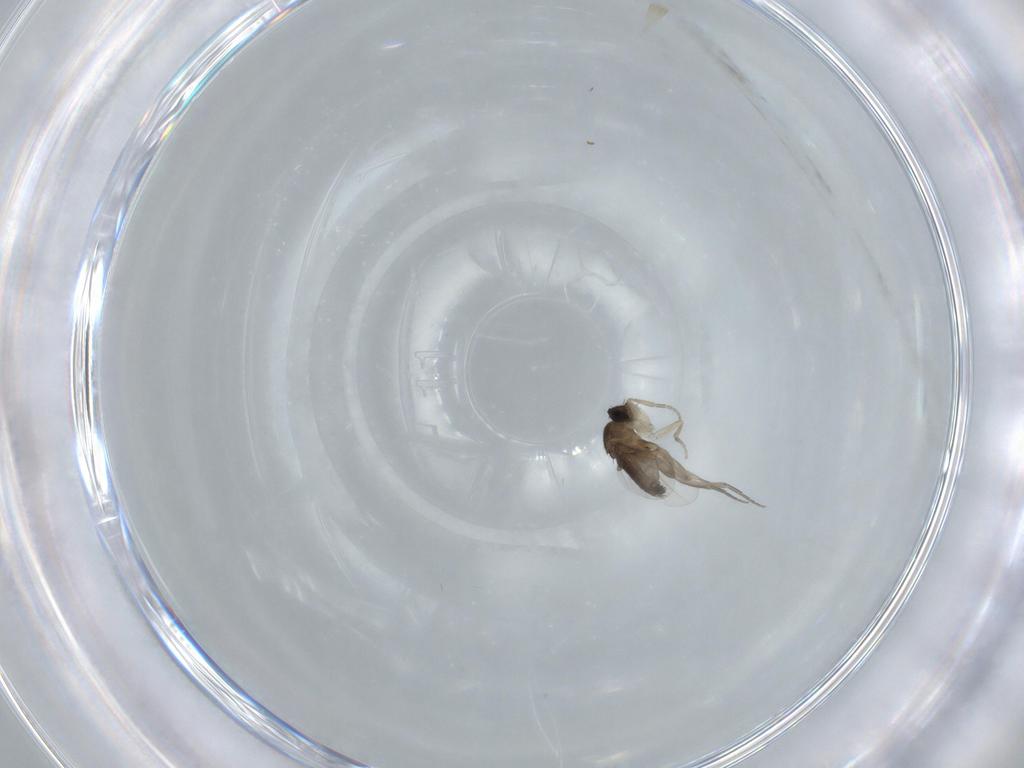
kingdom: Animalia
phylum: Arthropoda
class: Insecta
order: Diptera
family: Phoridae
